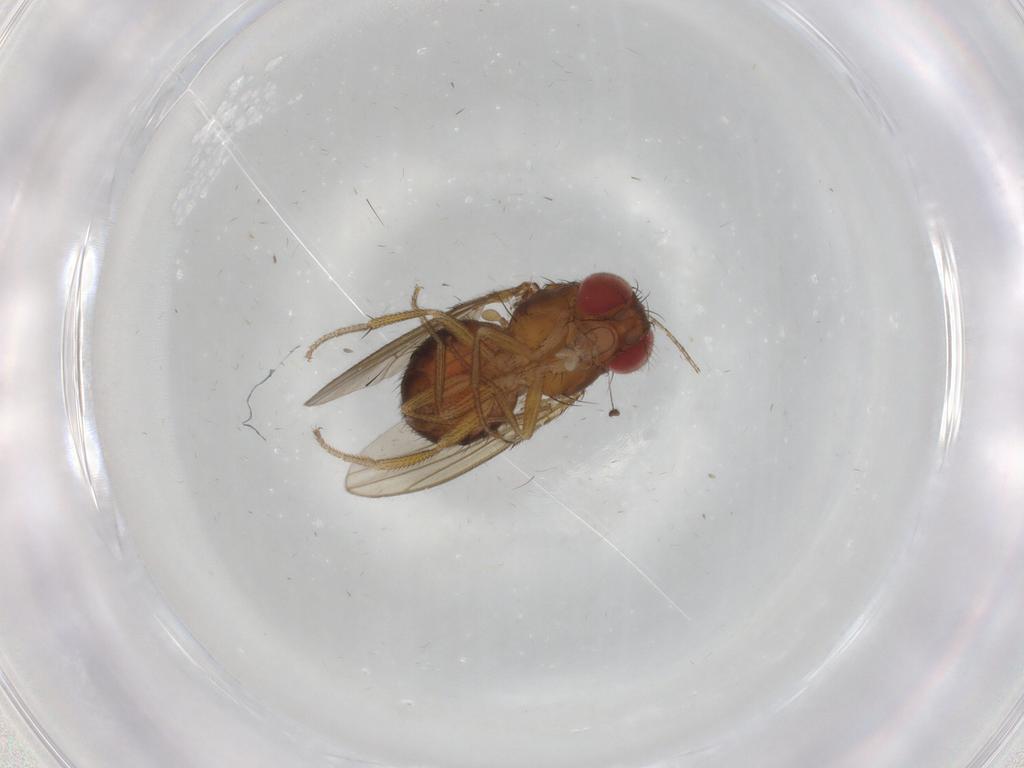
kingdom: Animalia
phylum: Arthropoda
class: Insecta
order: Diptera
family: Drosophilidae
